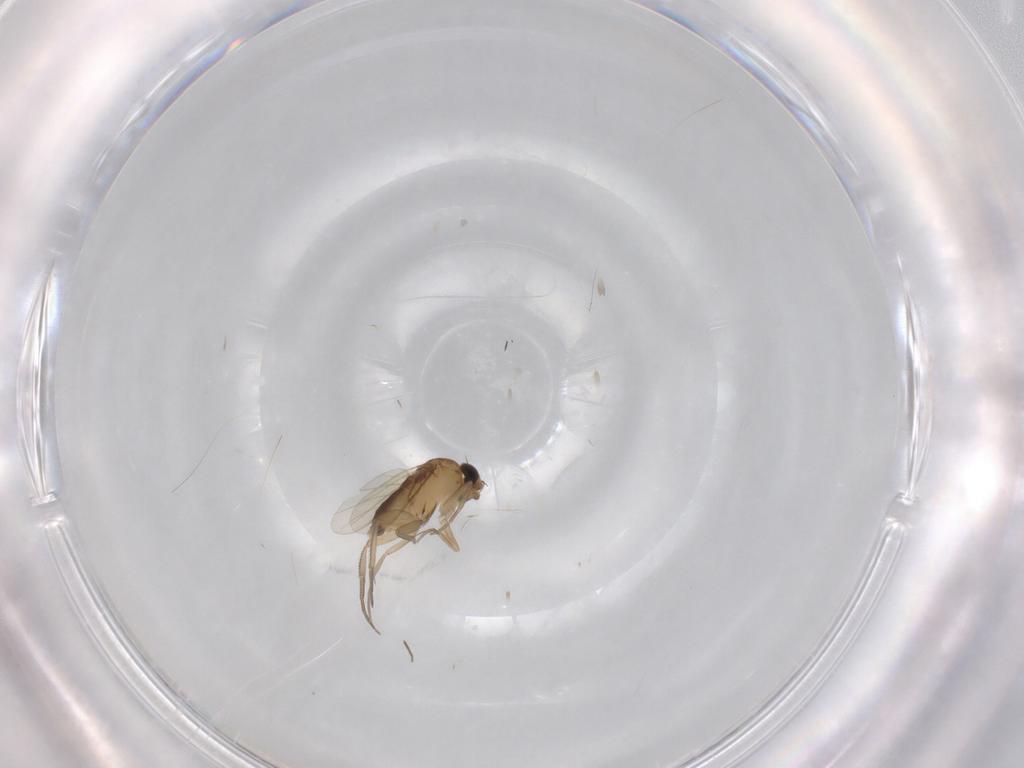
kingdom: Animalia
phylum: Arthropoda
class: Insecta
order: Diptera
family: Phoridae
